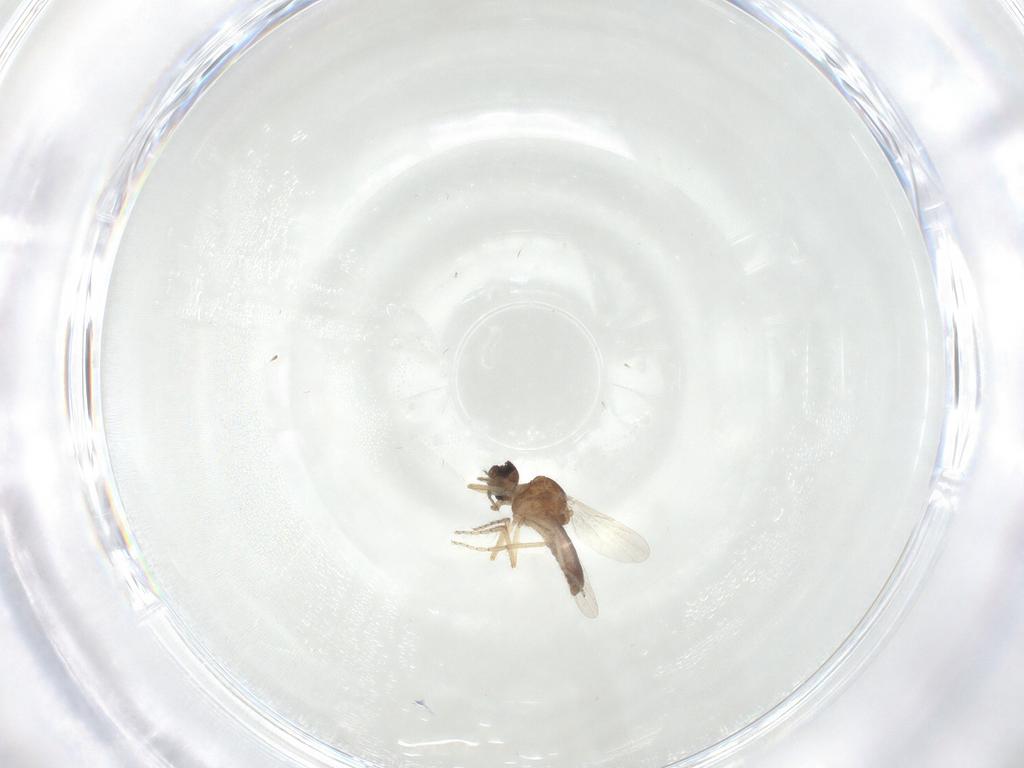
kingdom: Animalia
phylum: Arthropoda
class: Insecta
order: Diptera
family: Ceratopogonidae
